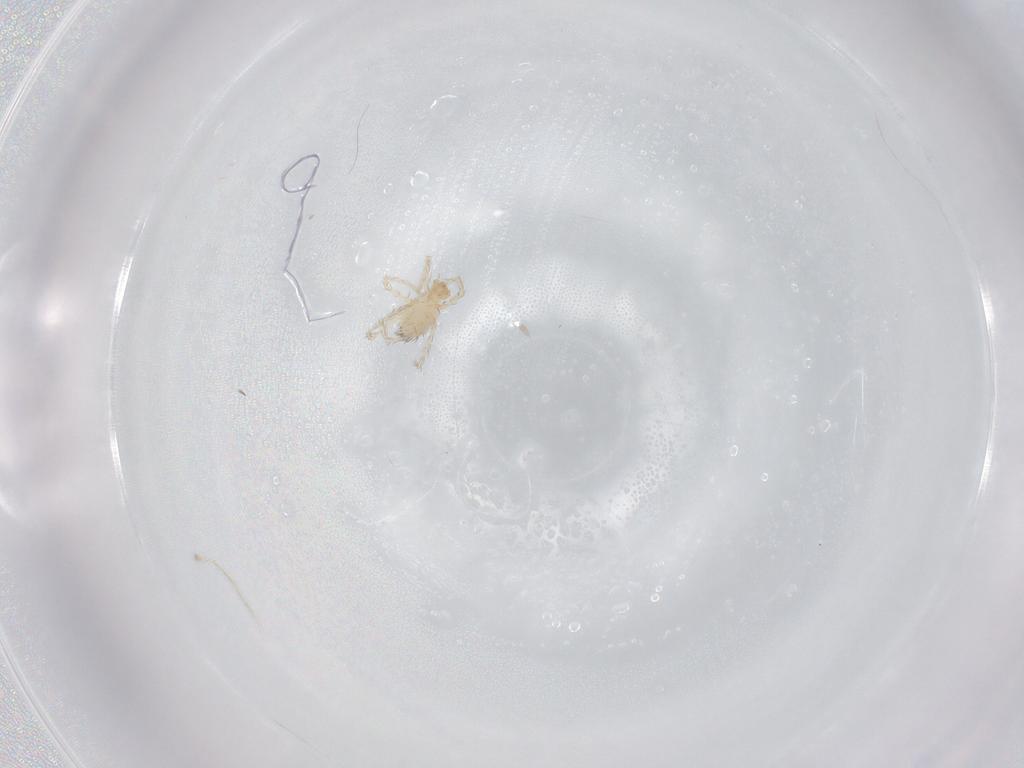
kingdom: Animalia
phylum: Arthropoda
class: Arachnida
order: Trombidiformes
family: Erythraeidae
